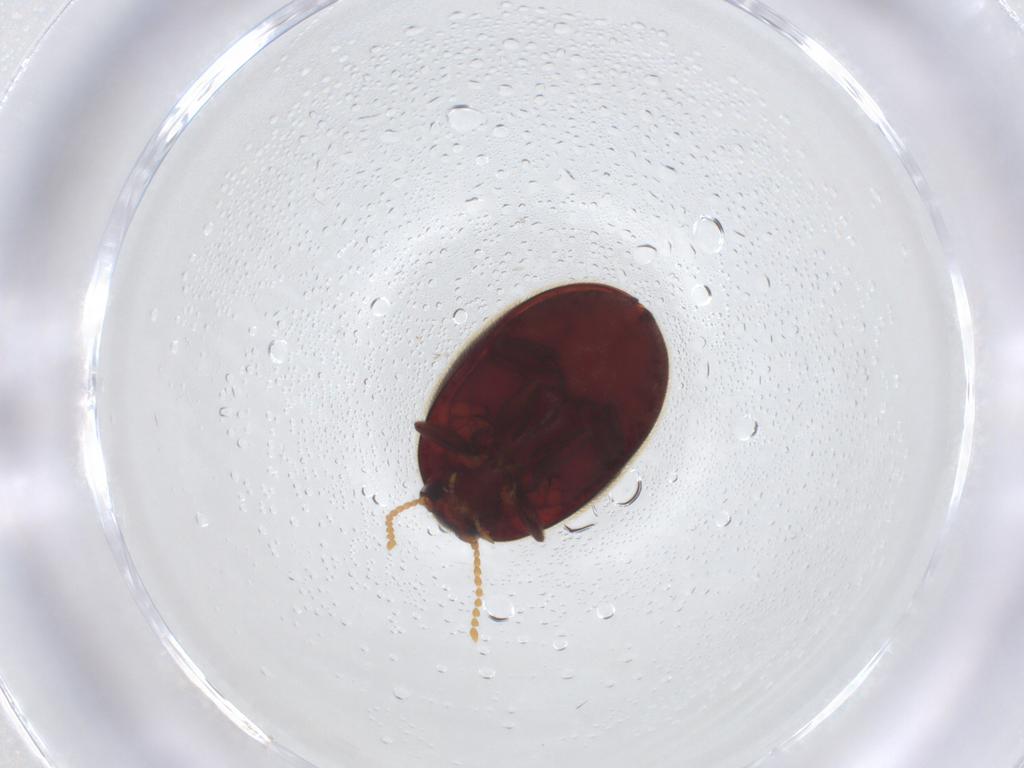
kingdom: Animalia
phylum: Arthropoda
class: Insecta
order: Coleoptera
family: Limnichidae
